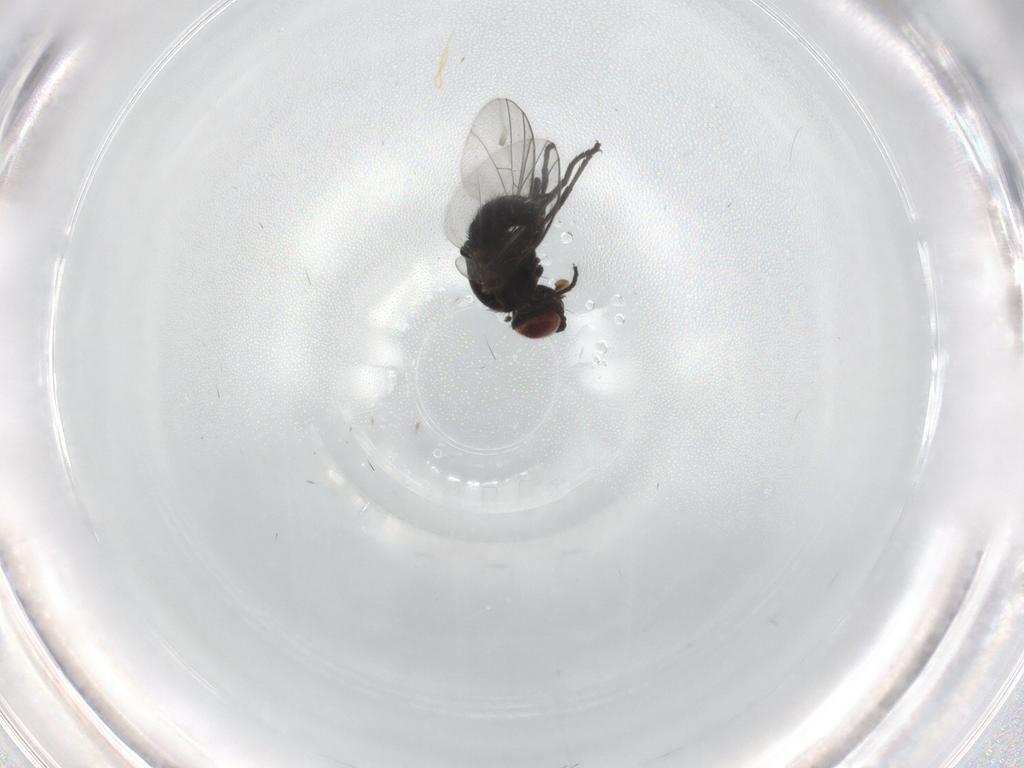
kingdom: Animalia
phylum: Arthropoda
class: Insecta
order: Diptera
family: Agromyzidae
